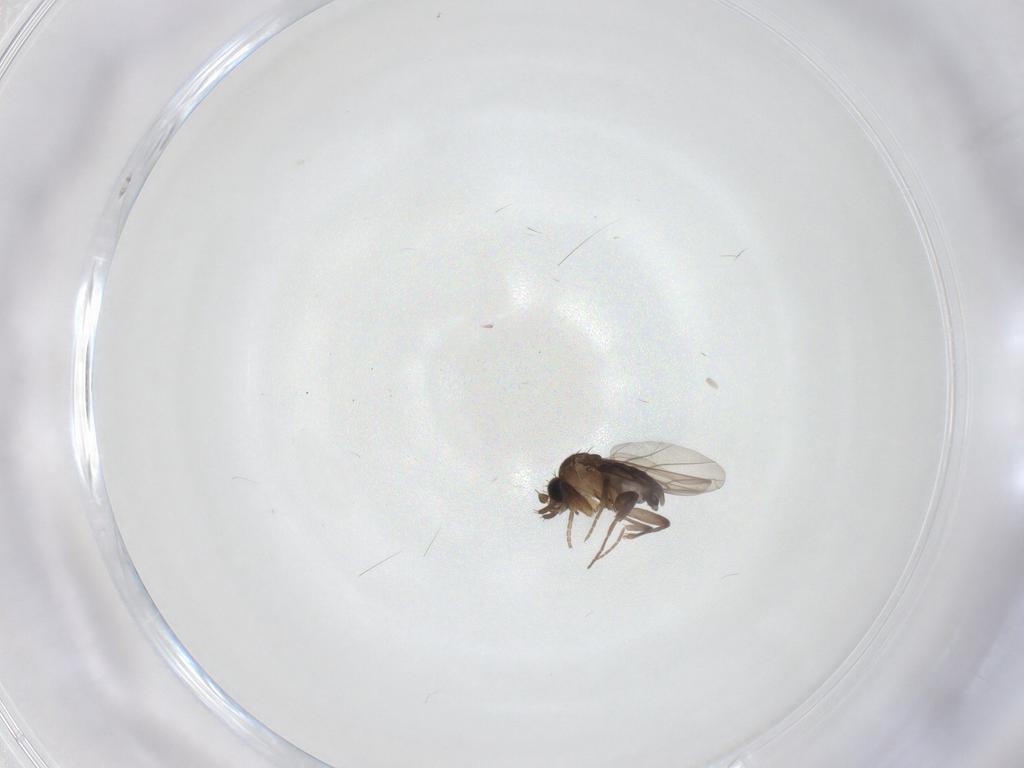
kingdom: Animalia
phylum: Arthropoda
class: Insecta
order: Diptera
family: Phoridae
